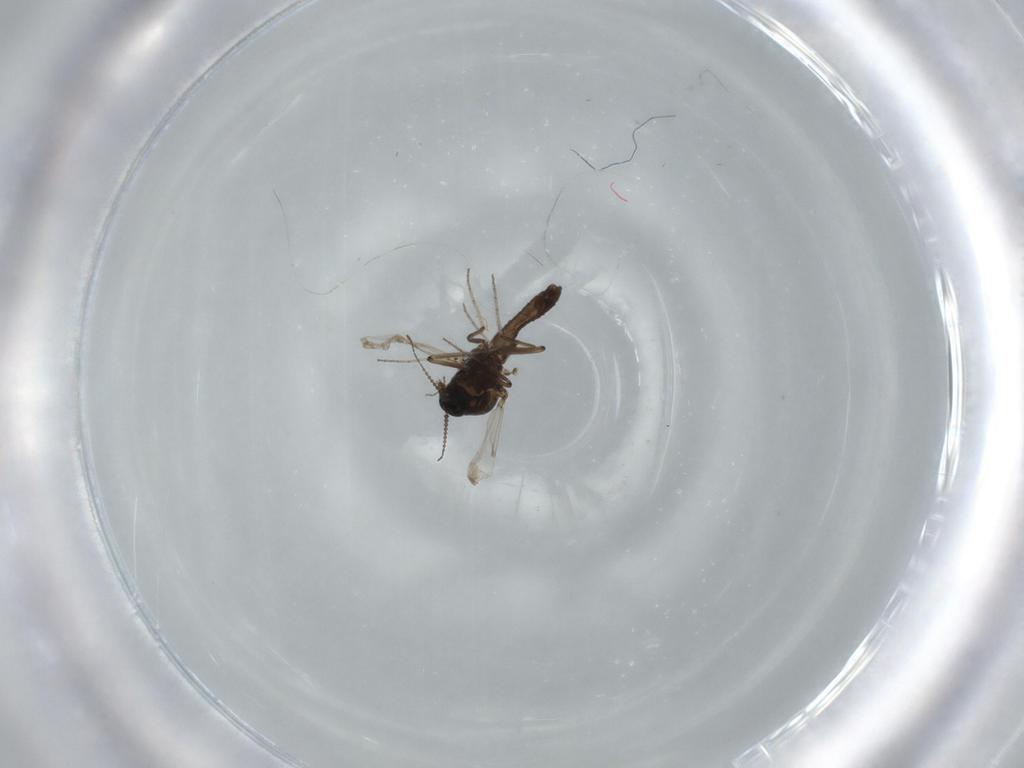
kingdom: Animalia
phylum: Arthropoda
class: Insecta
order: Diptera
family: Ceratopogonidae
